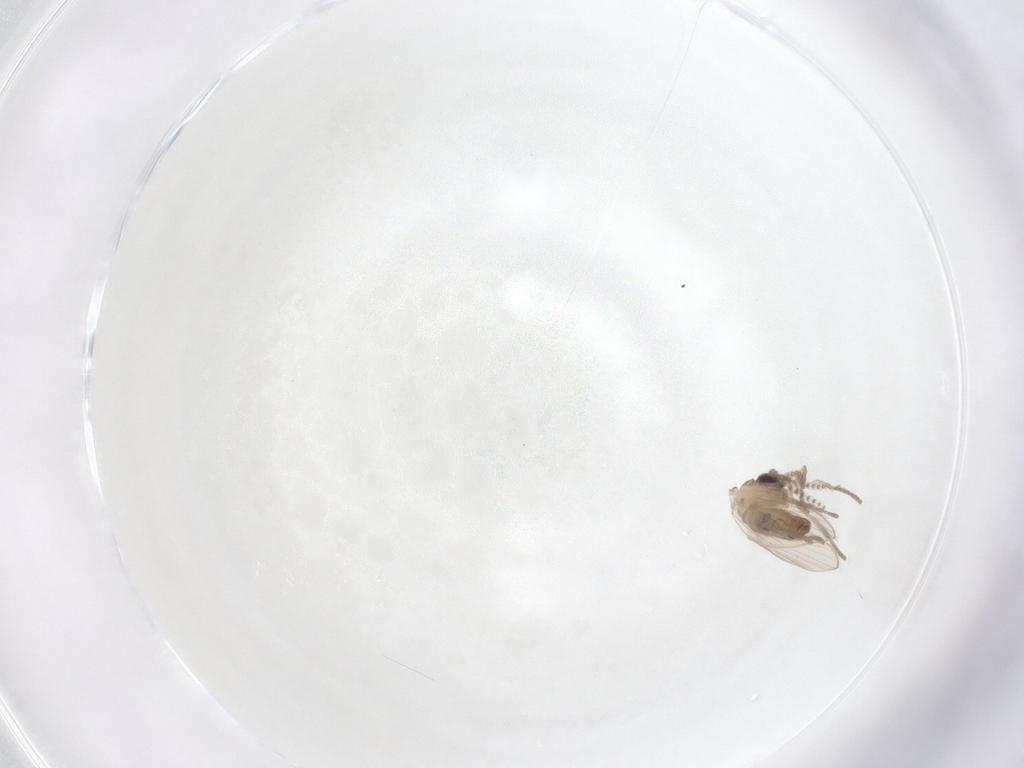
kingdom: Animalia
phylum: Arthropoda
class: Insecta
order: Diptera
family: Psychodidae
